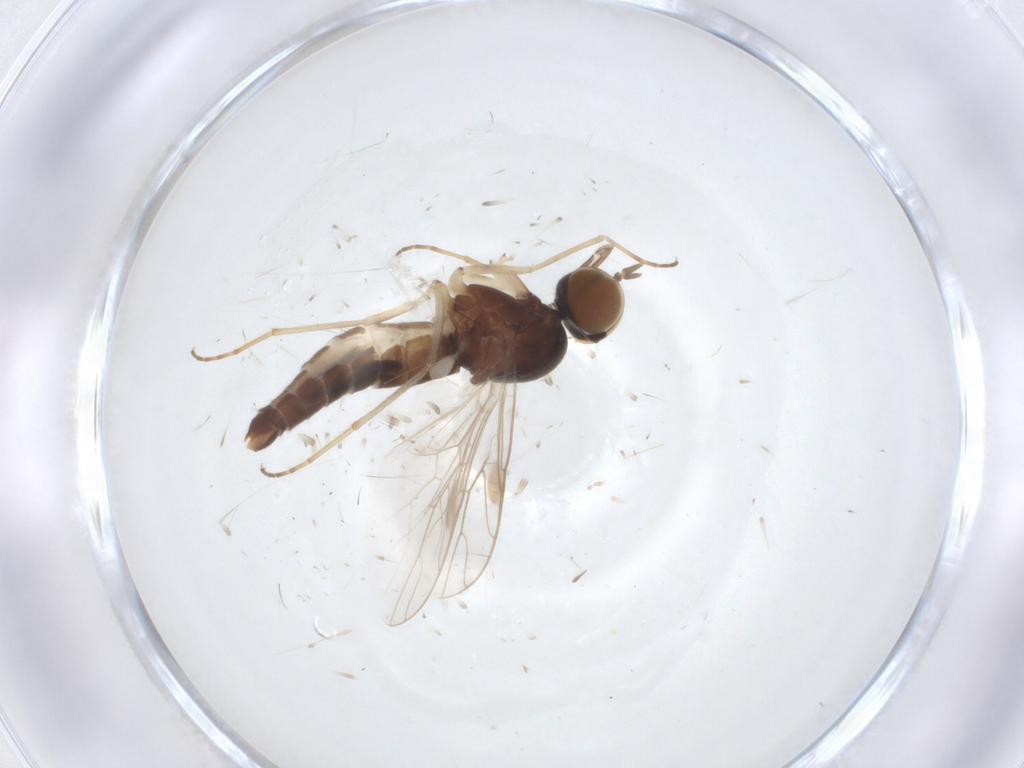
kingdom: Animalia
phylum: Arthropoda
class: Insecta
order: Diptera
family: Scenopinidae
